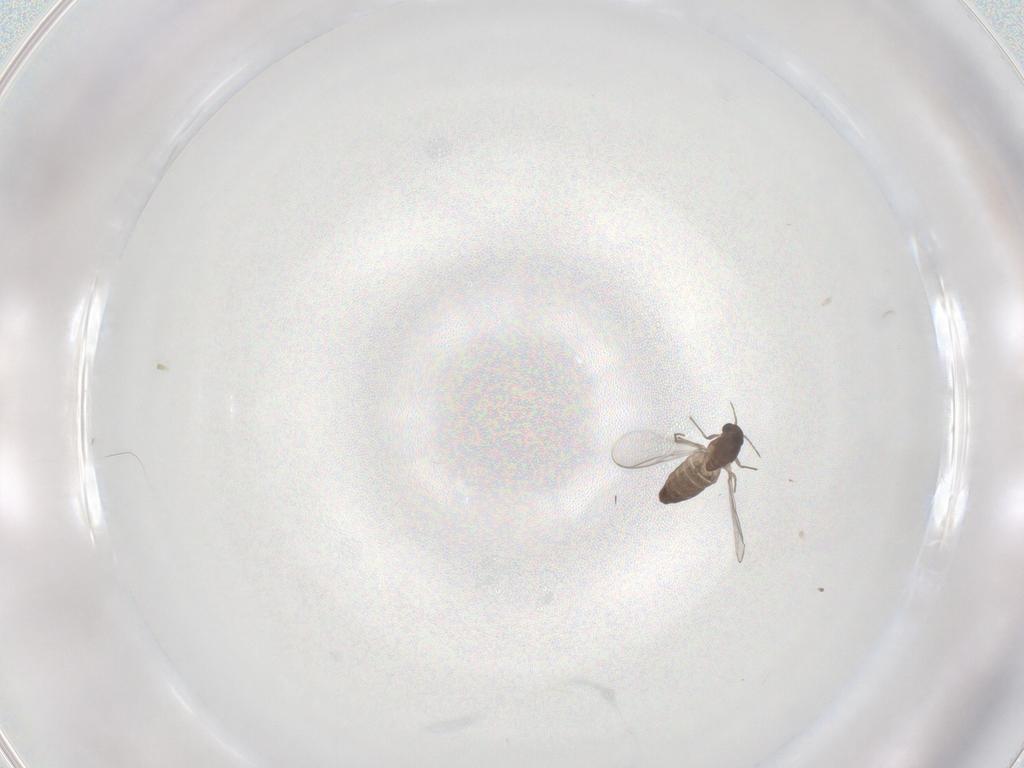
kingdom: Animalia
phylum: Arthropoda
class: Insecta
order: Diptera
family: Chironomidae
